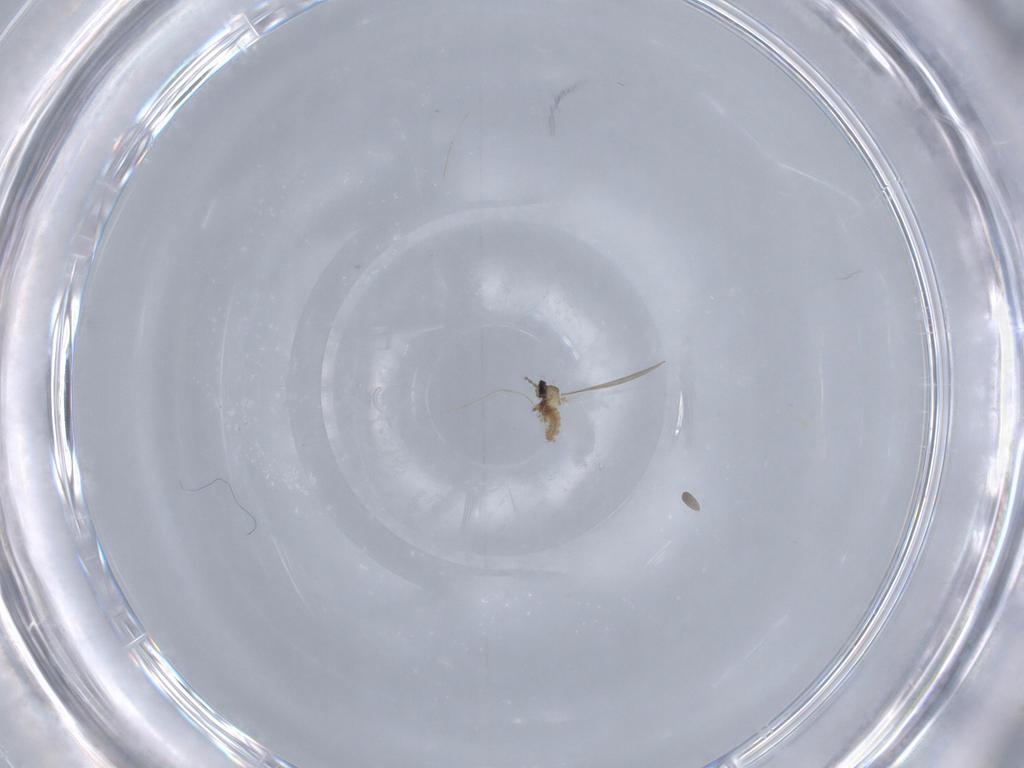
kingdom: Animalia
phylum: Arthropoda
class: Insecta
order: Diptera
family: Cecidomyiidae
